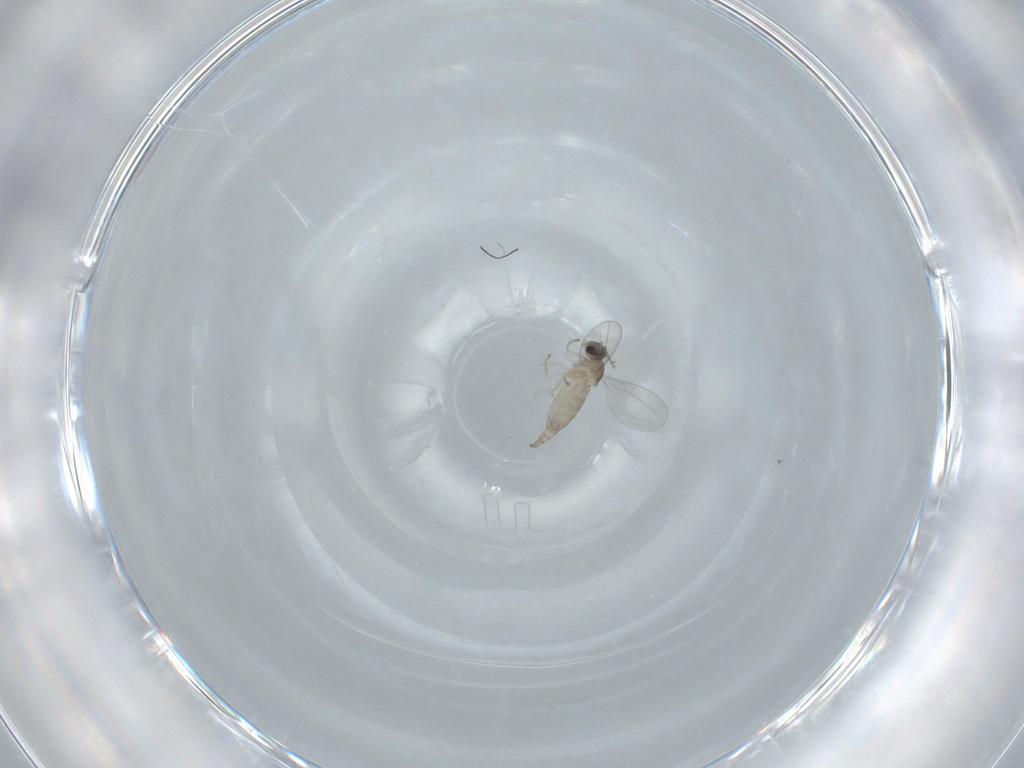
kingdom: Animalia
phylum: Arthropoda
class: Insecta
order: Diptera
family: Cecidomyiidae
